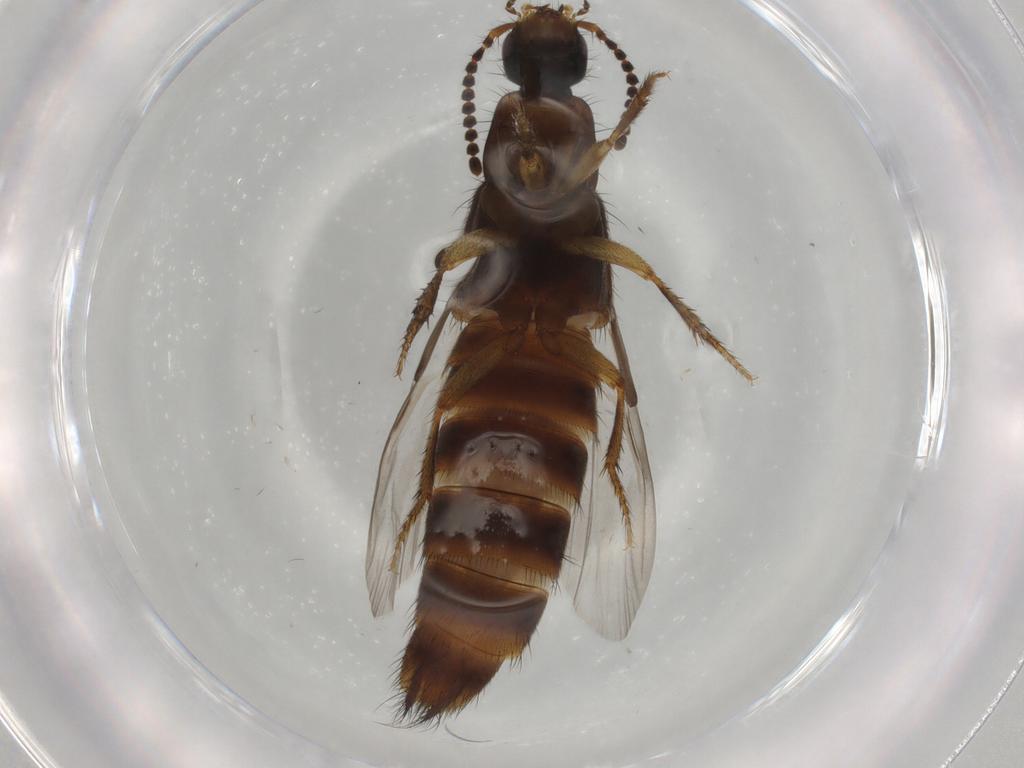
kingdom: Animalia
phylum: Arthropoda
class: Insecta
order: Coleoptera
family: Staphylinidae
